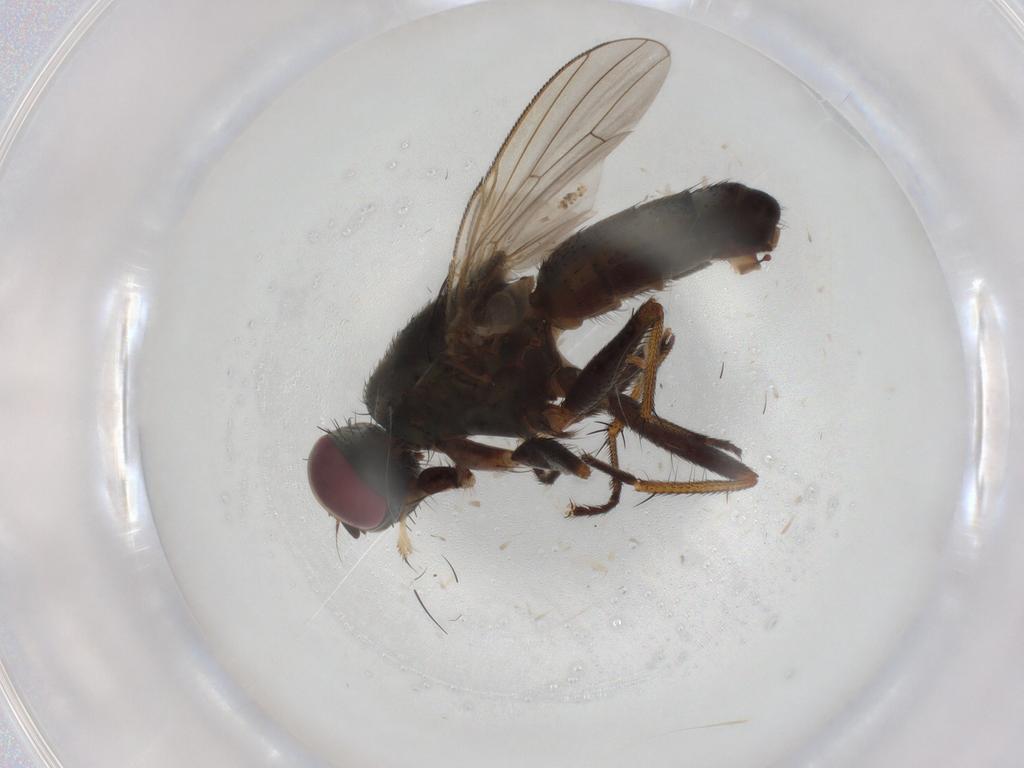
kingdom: Animalia
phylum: Arthropoda
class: Insecta
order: Diptera
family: Muscidae
